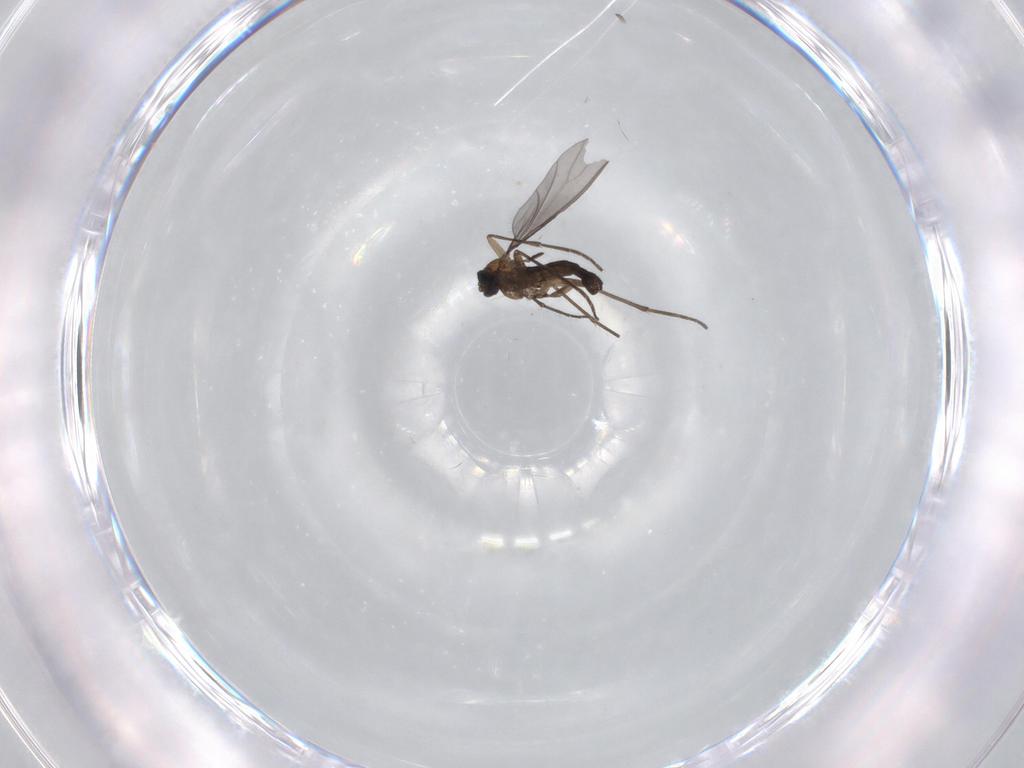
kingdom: Animalia
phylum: Arthropoda
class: Insecta
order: Diptera
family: Sciaridae
